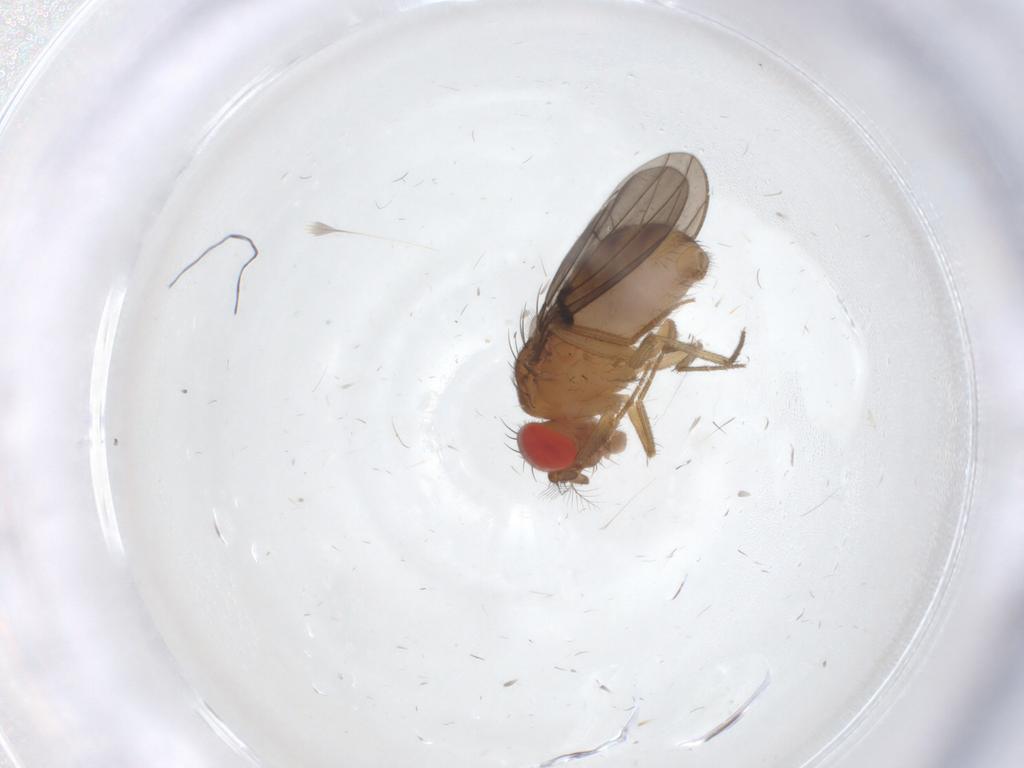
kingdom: Animalia
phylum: Arthropoda
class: Insecta
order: Diptera
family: Drosophilidae
